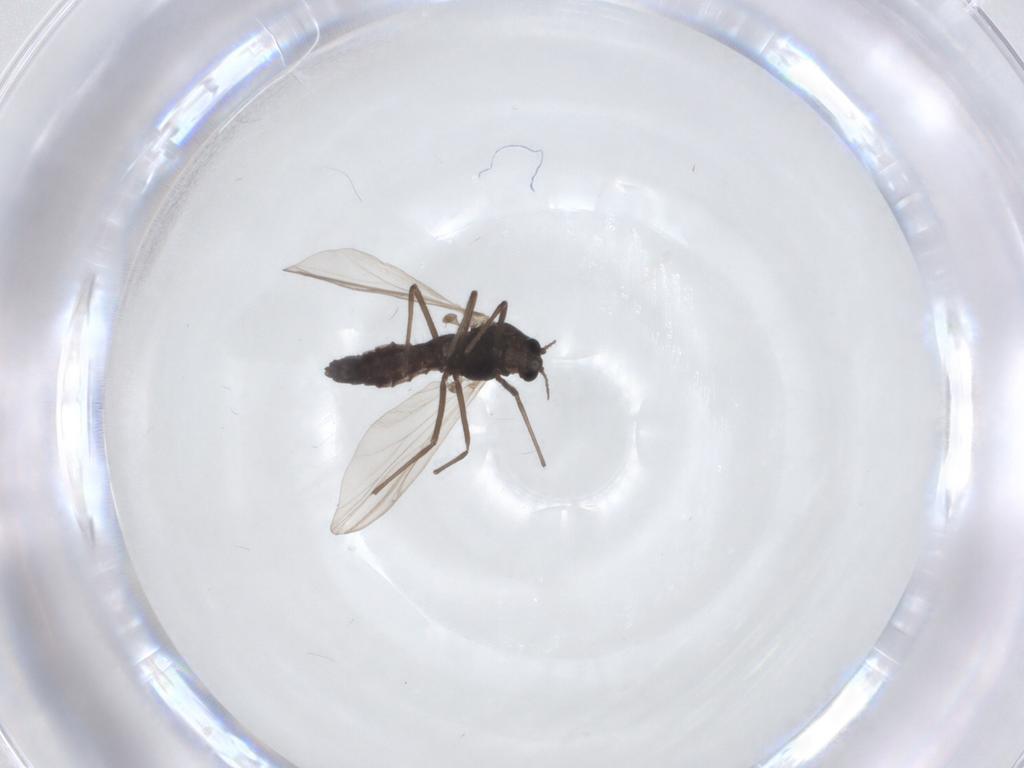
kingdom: Animalia
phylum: Arthropoda
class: Insecta
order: Diptera
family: Chironomidae
